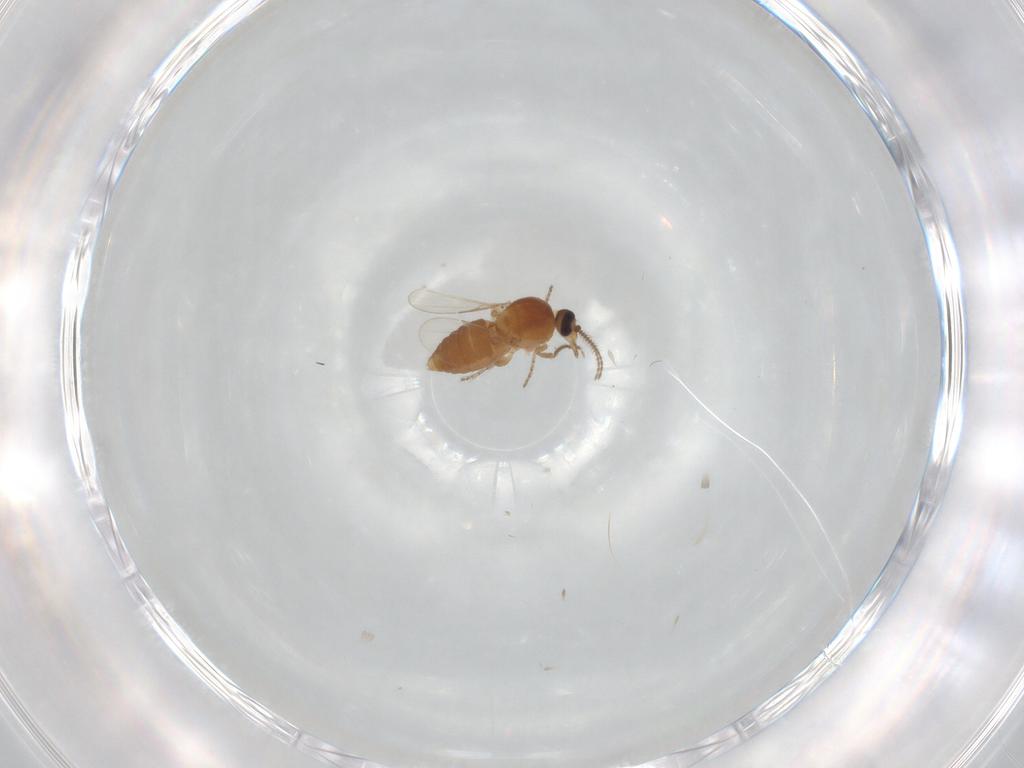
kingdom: Animalia
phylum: Arthropoda
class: Insecta
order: Diptera
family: Ceratopogonidae
